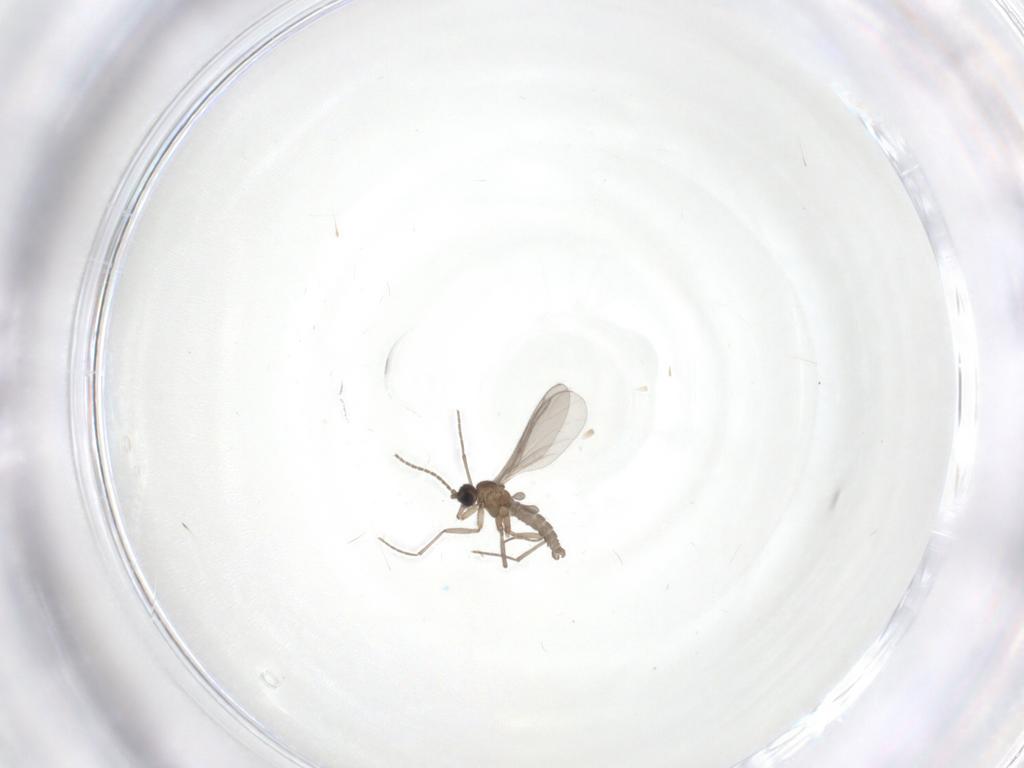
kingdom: Animalia
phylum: Arthropoda
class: Insecta
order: Diptera
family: Sciaridae
